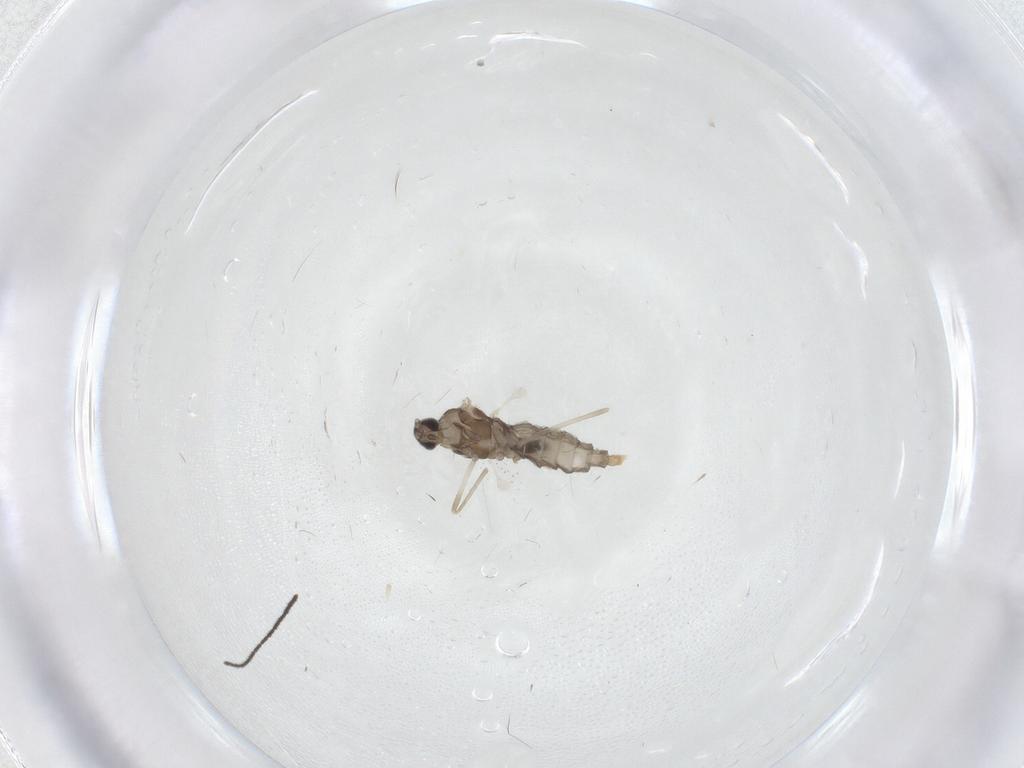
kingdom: Animalia
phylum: Arthropoda
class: Insecta
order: Diptera
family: Cecidomyiidae
